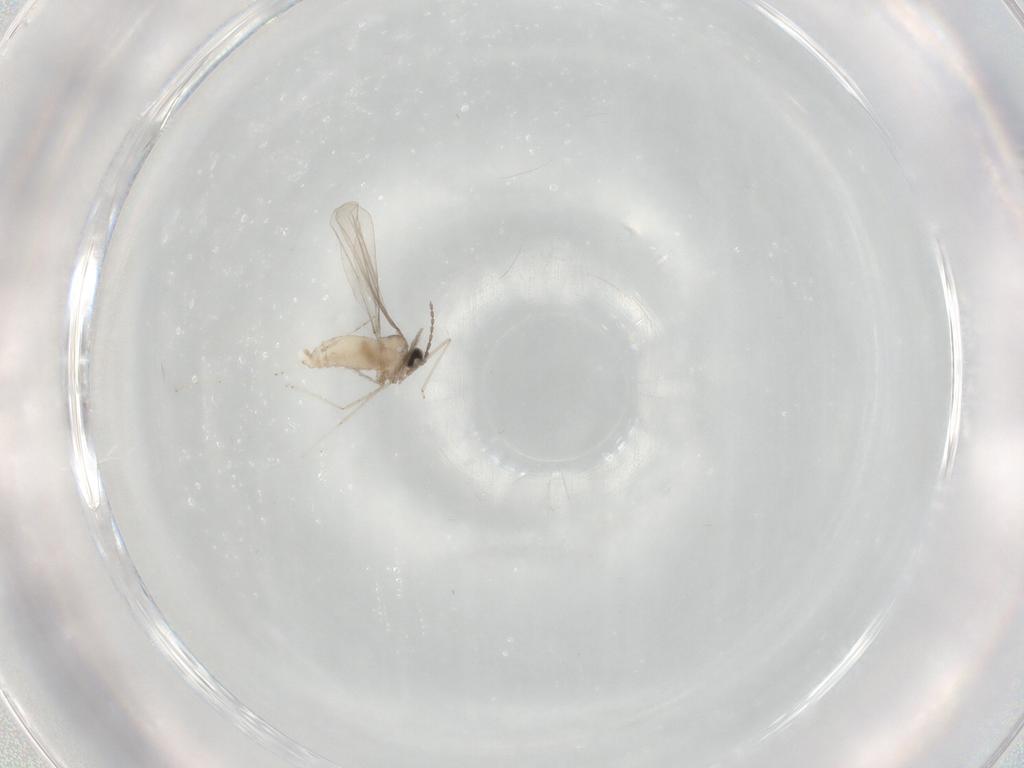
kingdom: Animalia
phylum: Arthropoda
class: Insecta
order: Diptera
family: Cecidomyiidae
